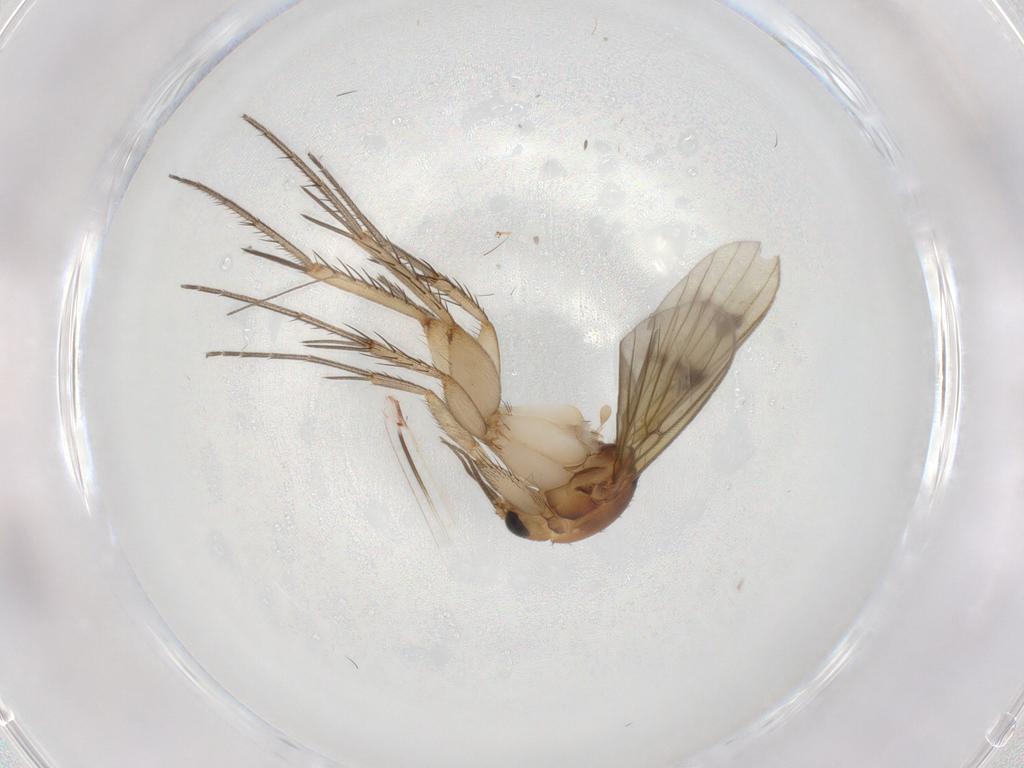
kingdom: Animalia
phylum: Arthropoda
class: Insecta
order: Diptera
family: Mycetophilidae
